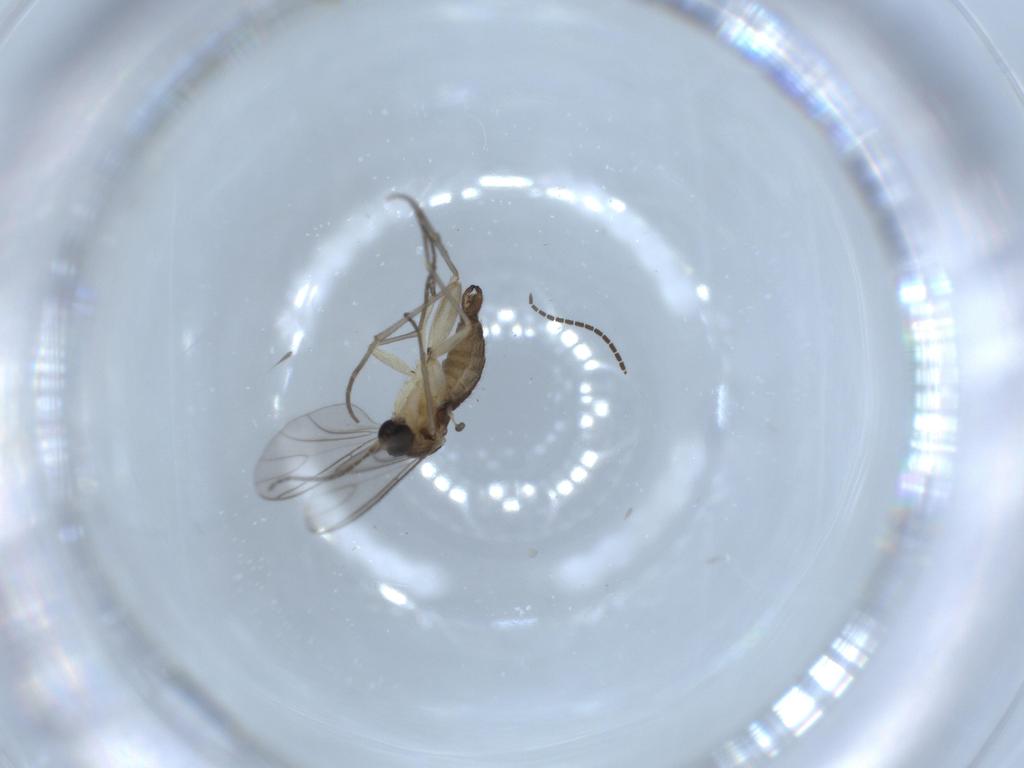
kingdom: Animalia
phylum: Arthropoda
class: Insecta
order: Diptera
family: Sciaridae
